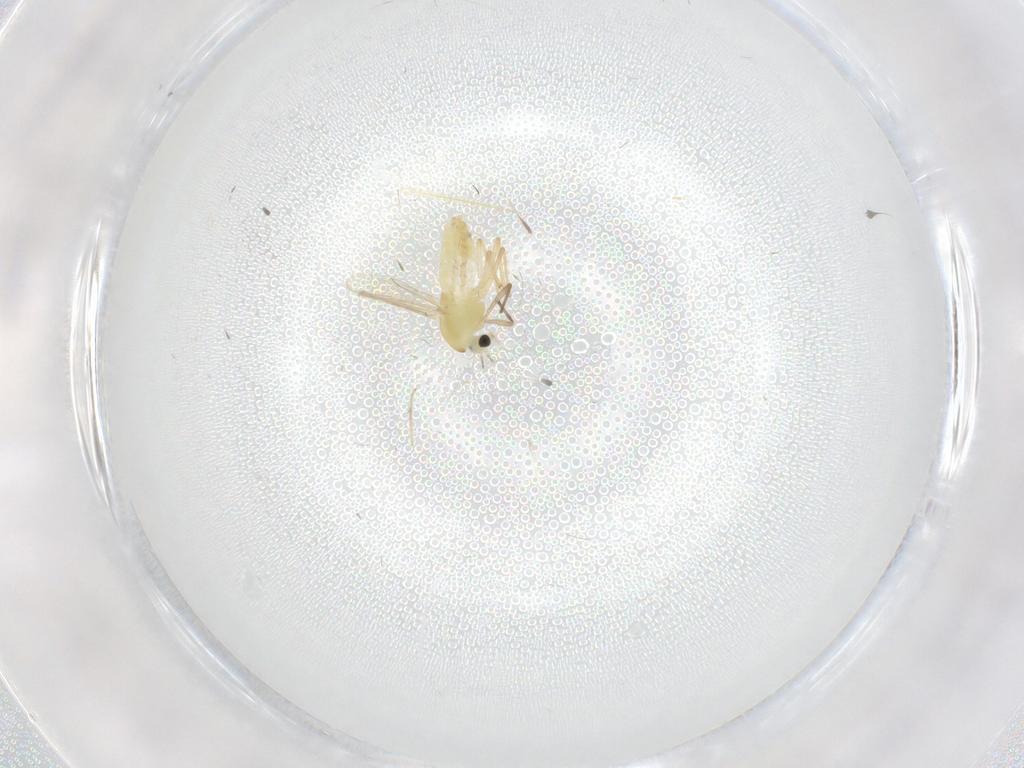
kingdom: Animalia
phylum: Arthropoda
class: Insecta
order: Diptera
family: Chironomidae
